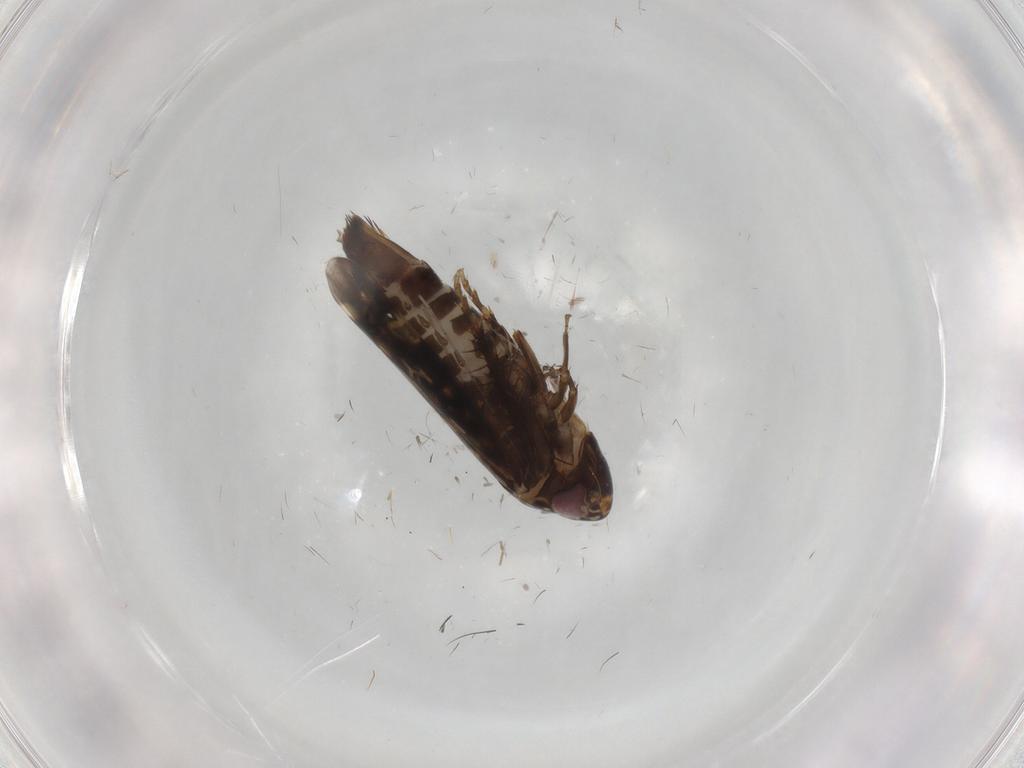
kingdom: Animalia
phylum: Arthropoda
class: Insecta
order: Hemiptera
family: Cicadellidae
